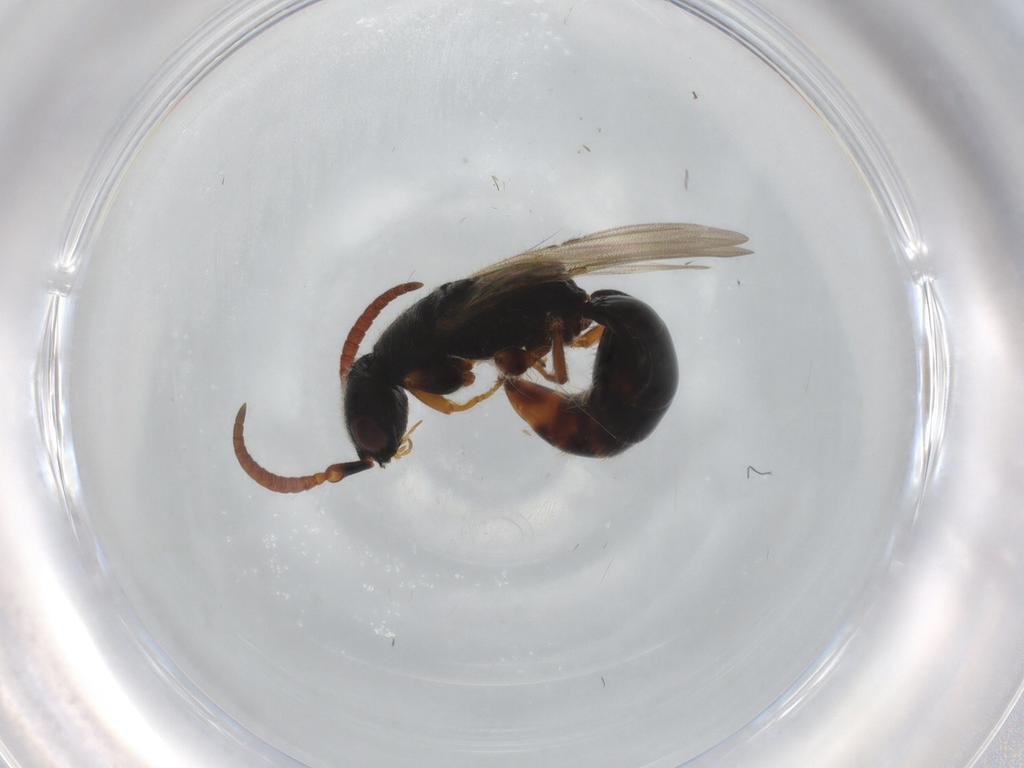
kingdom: Animalia
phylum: Arthropoda
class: Insecta
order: Hymenoptera
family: Bethylidae
